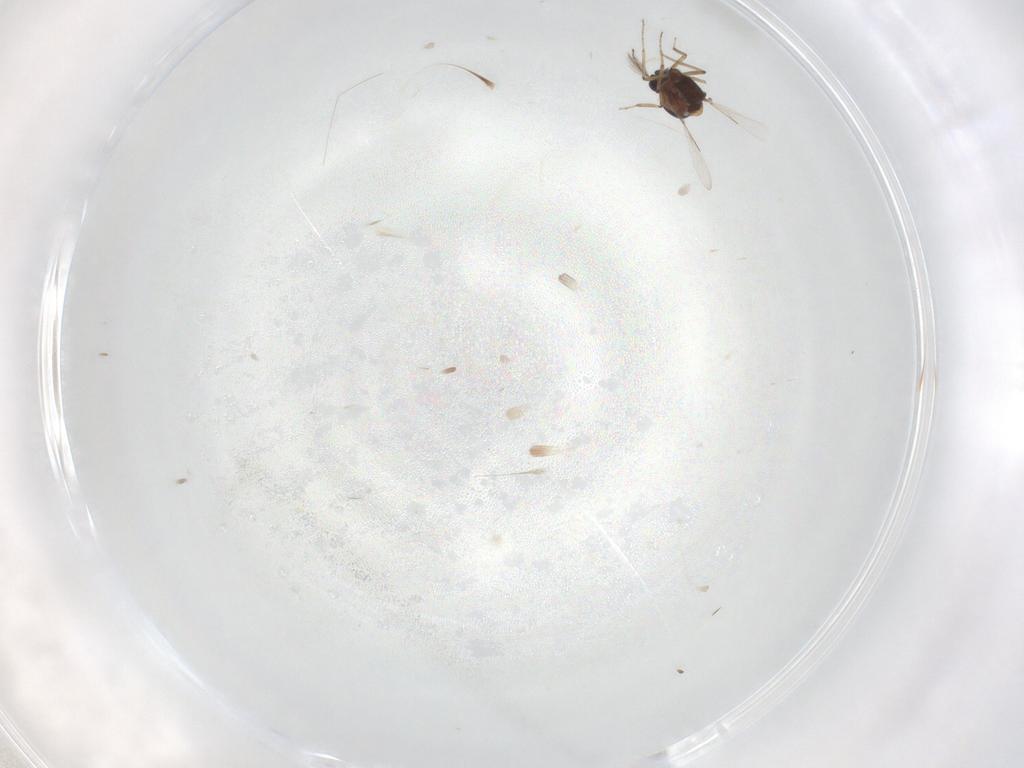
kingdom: Animalia
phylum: Arthropoda
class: Insecta
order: Diptera
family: Ceratopogonidae
